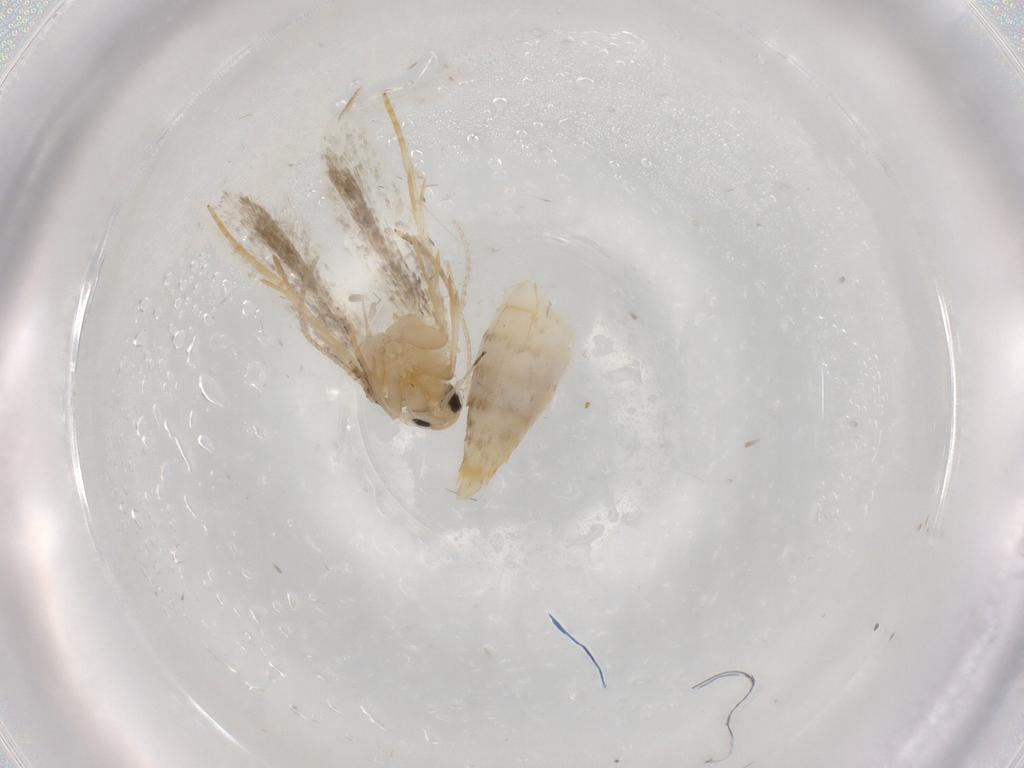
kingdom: Animalia
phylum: Arthropoda
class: Insecta
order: Lepidoptera
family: Autostichidae
